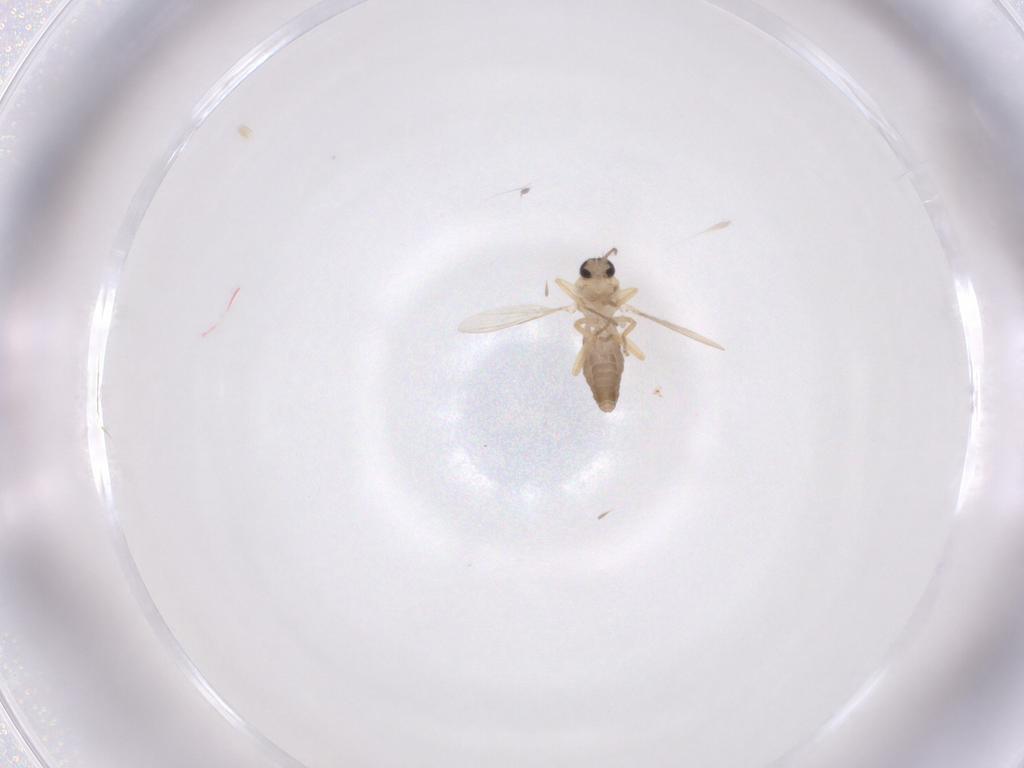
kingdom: Animalia
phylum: Arthropoda
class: Insecta
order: Diptera
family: Ceratopogonidae
